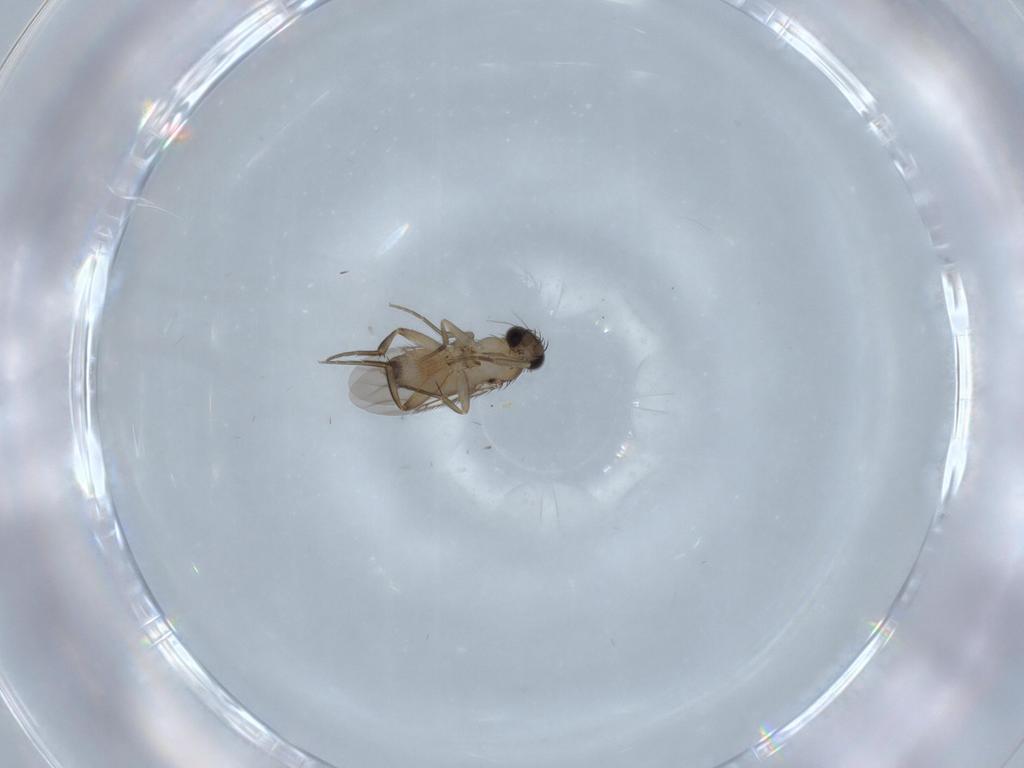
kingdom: Animalia
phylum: Arthropoda
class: Insecta
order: Diptera
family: Phoridae
